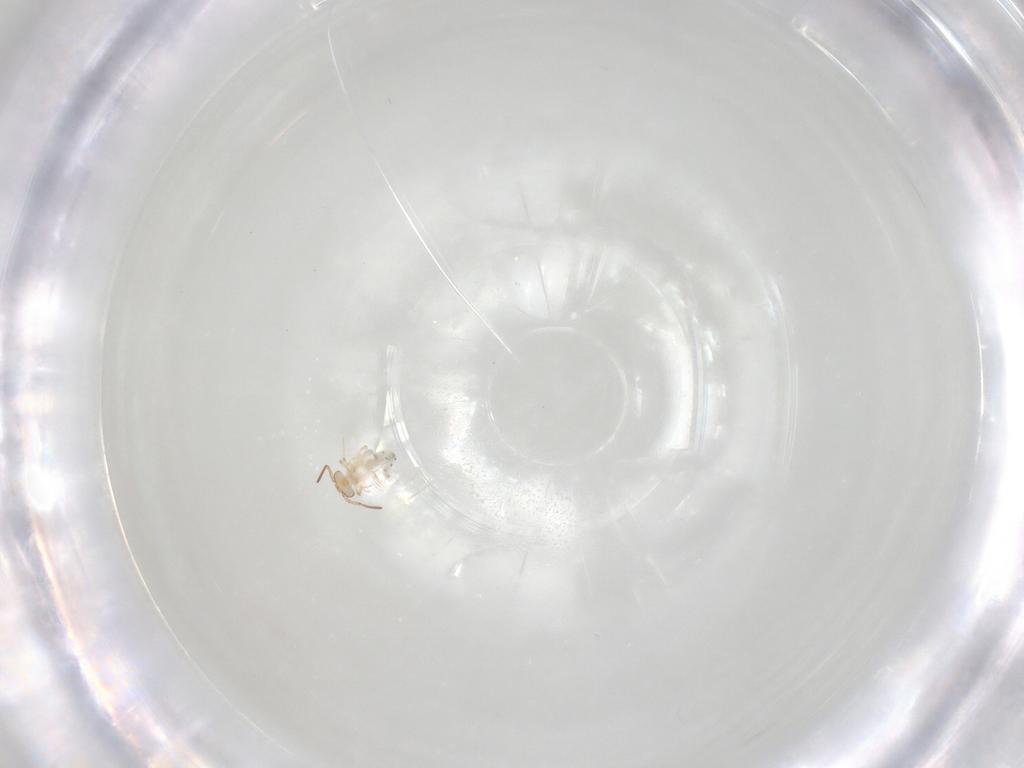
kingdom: Animalia
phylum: Arthropoda
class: Collembola
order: Symphypleona
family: Bourletiellidae
